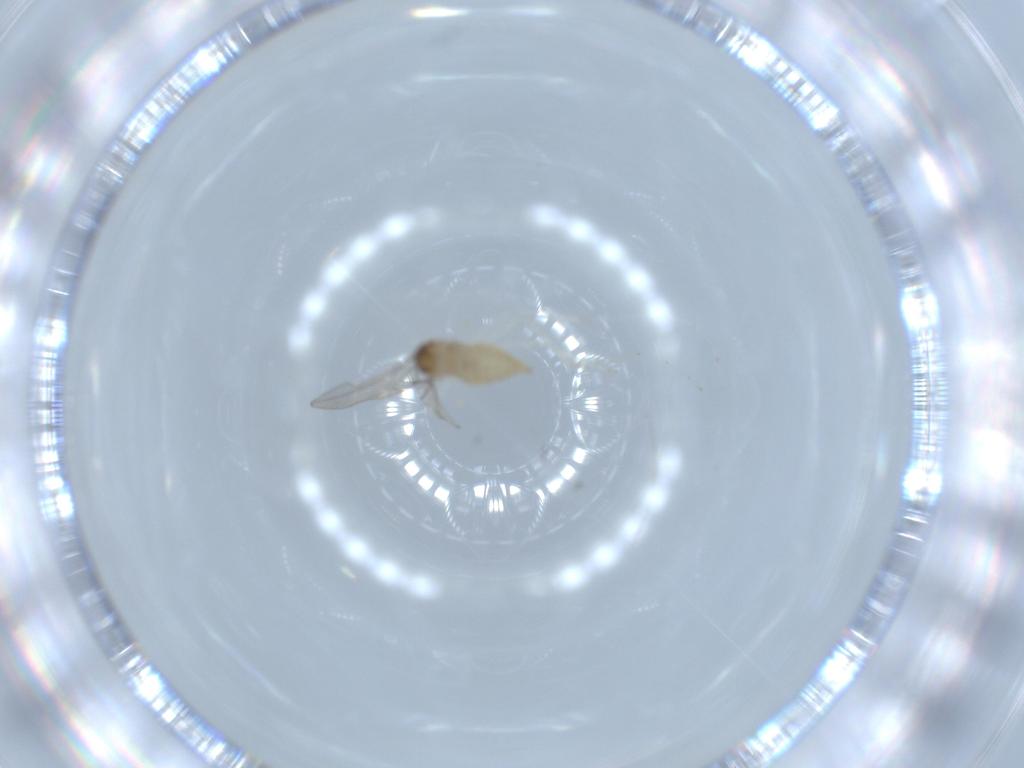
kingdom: Animalia
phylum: Arthropoda
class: Insecta
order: Diptera
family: Cecidomyiidae
